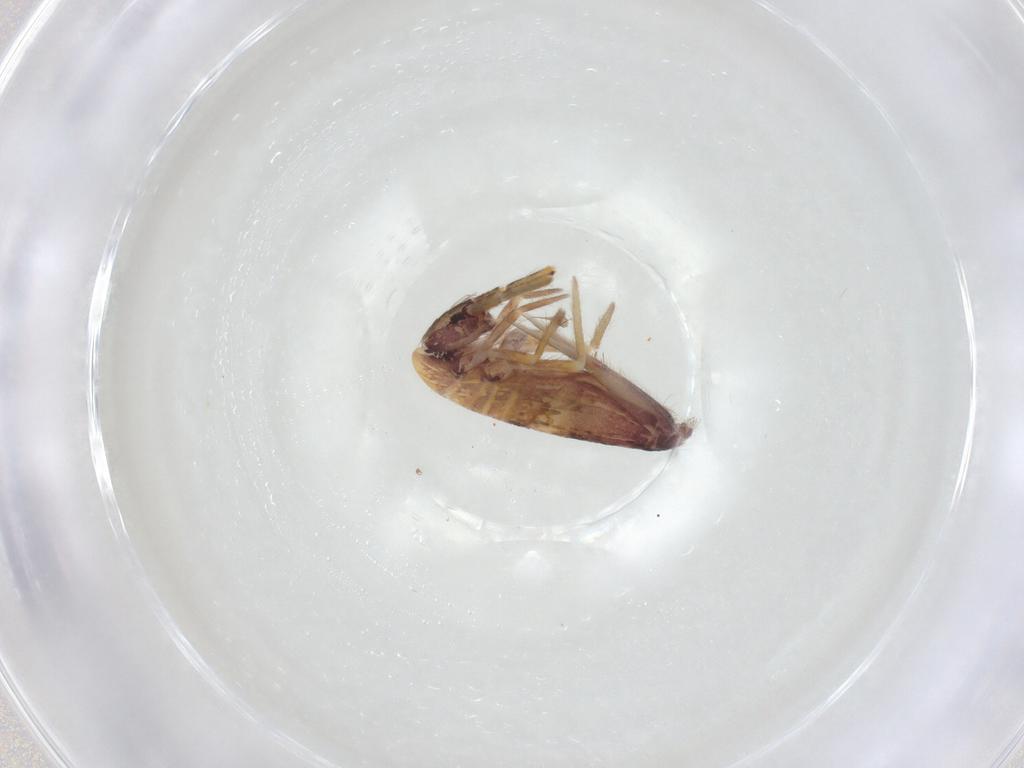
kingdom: Animalia
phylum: Arthropoda
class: Collembola
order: Entomobryomorpha
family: Entomobryidae
